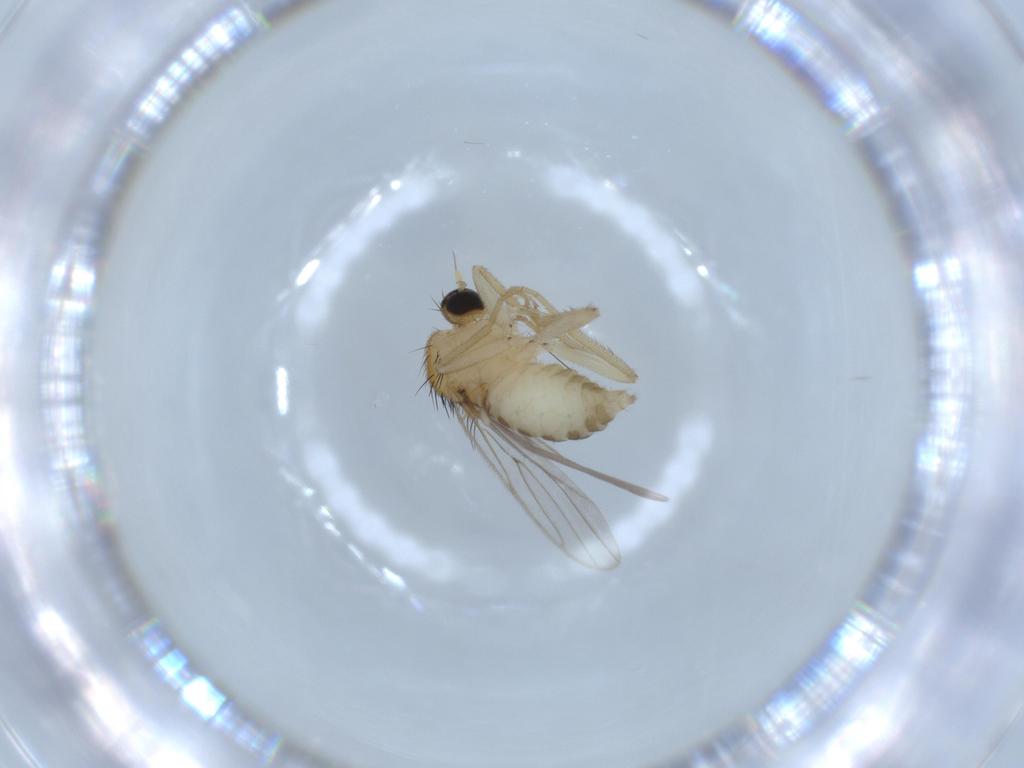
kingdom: Animalia
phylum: Arthropoda
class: Insecta
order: Diptera
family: Hybotidae
